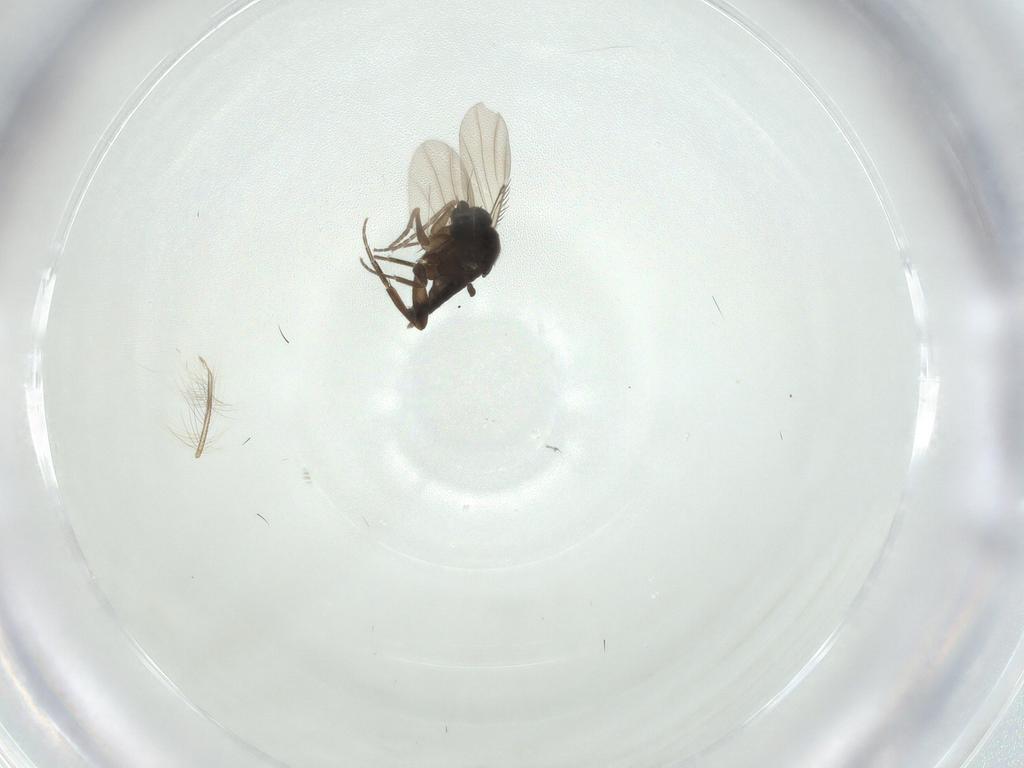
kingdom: Animalia
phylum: Arthropoda
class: Insecta
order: Diptera
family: Phoridae
